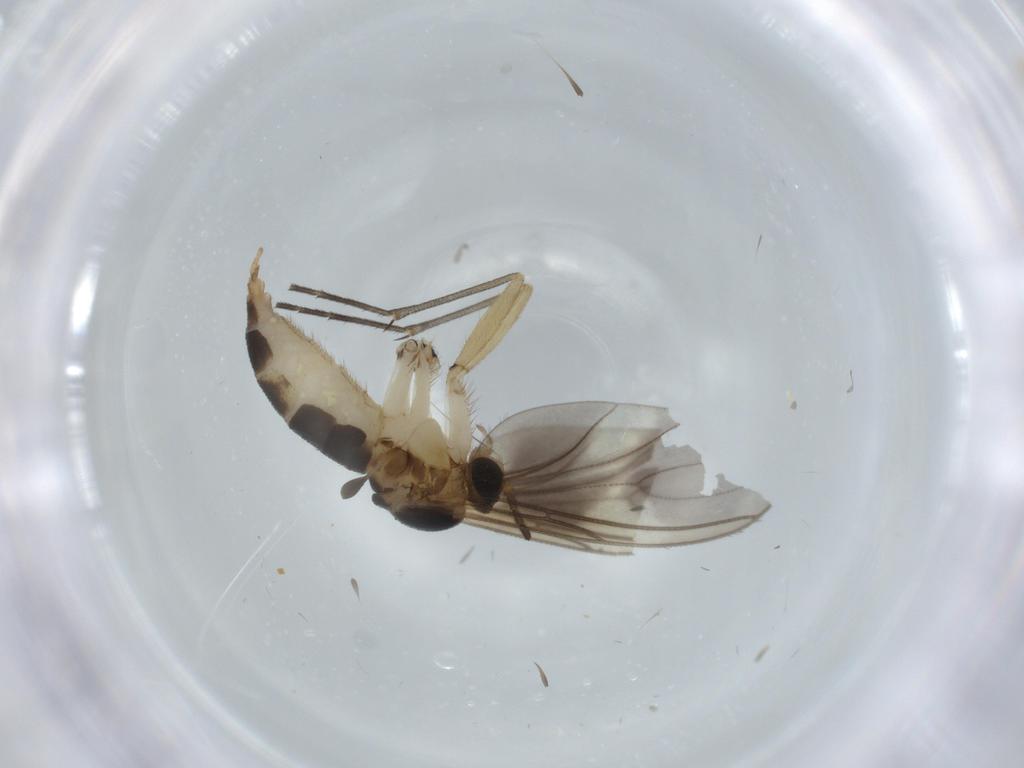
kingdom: Animalia
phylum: Arthropoda
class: Insecta
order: Diptera
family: Sciaridae
